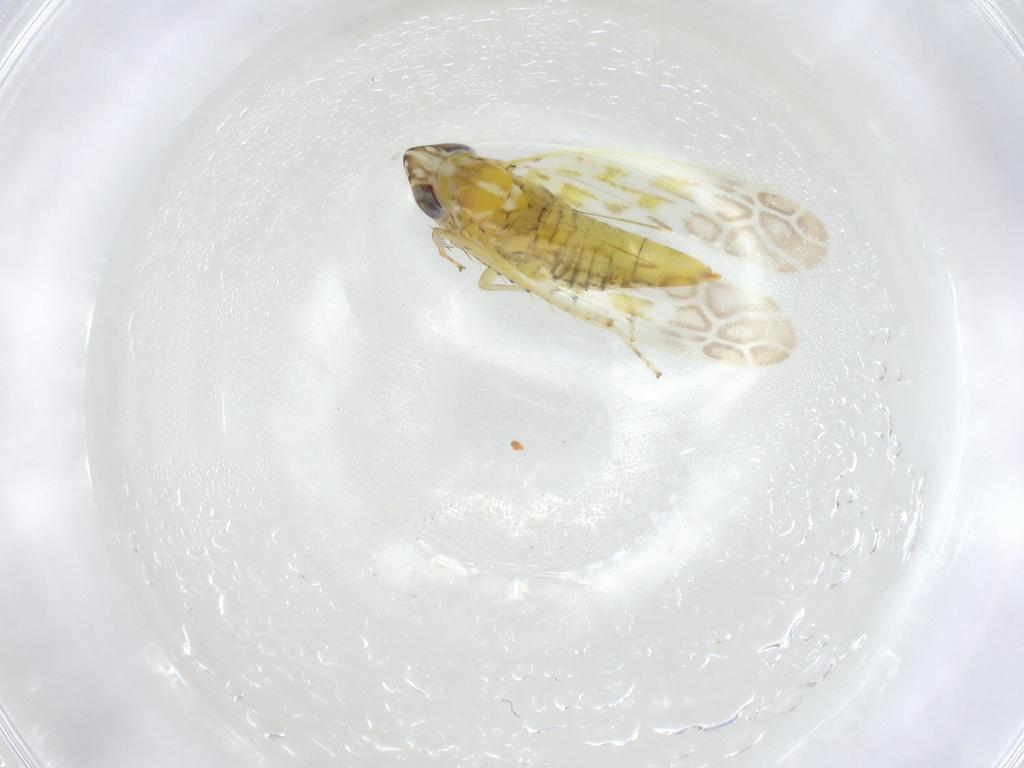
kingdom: Animalia
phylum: Arthropoda
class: Insecta
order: Hemiptera
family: Cicadellidae
